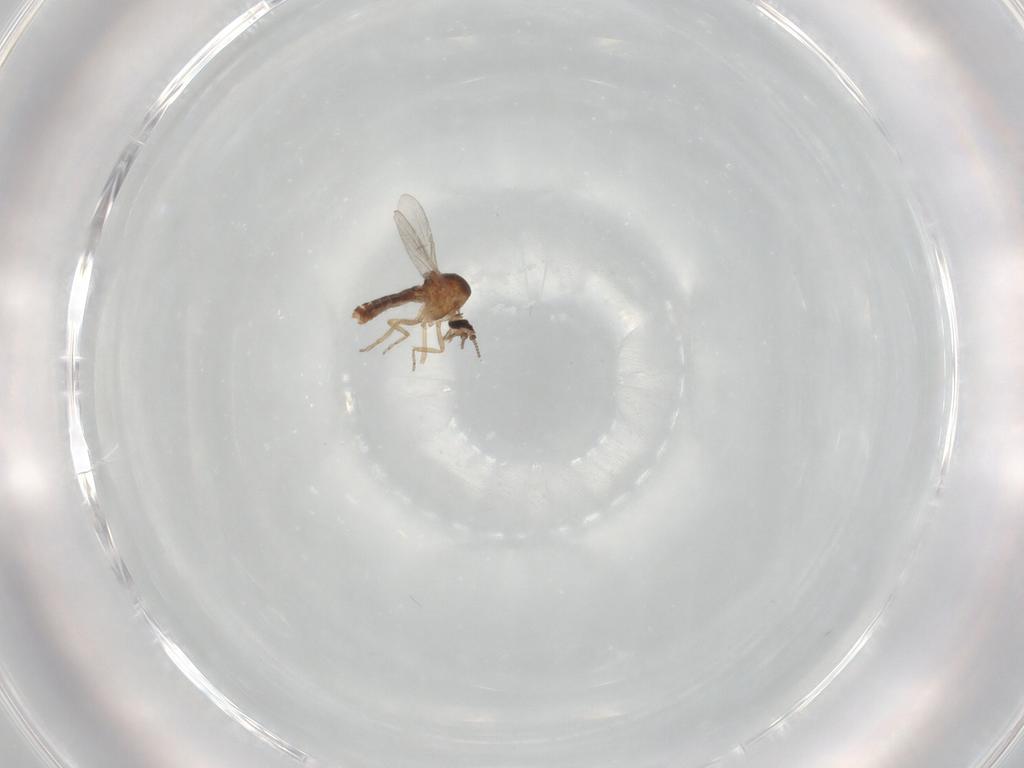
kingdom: Animalia
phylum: Arthropoda
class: Insecta
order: Diptera
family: Ceratopogonidae
